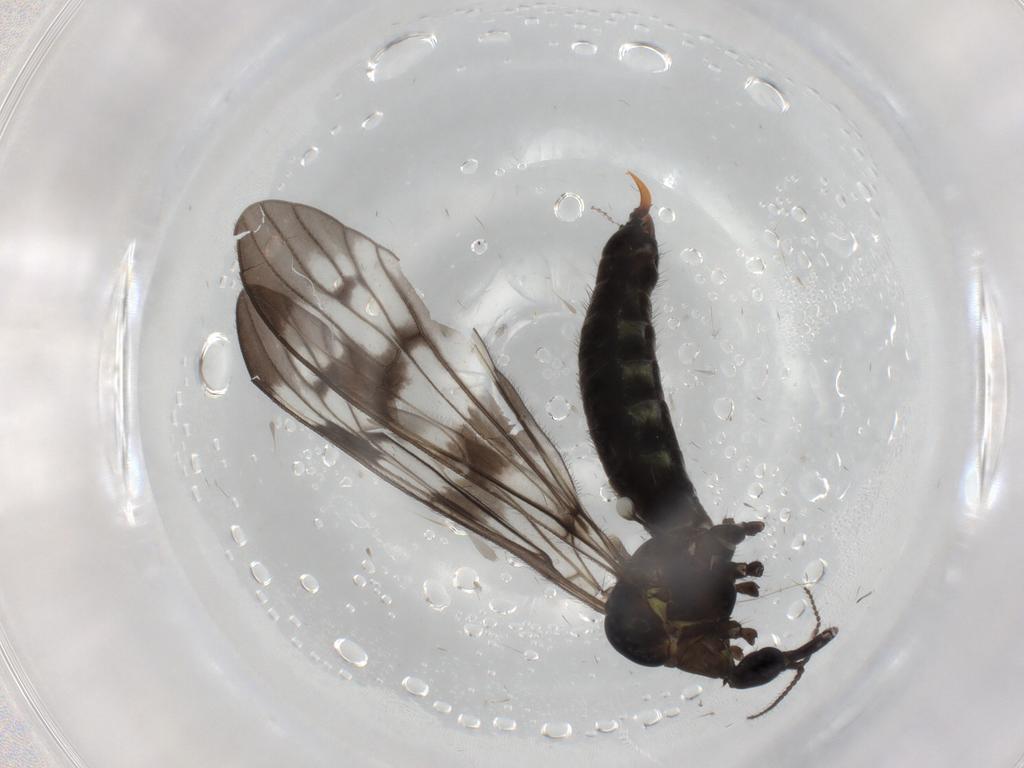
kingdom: Animalia
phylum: Arthropoda
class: Insecta
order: Diptera
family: Limoniidae
